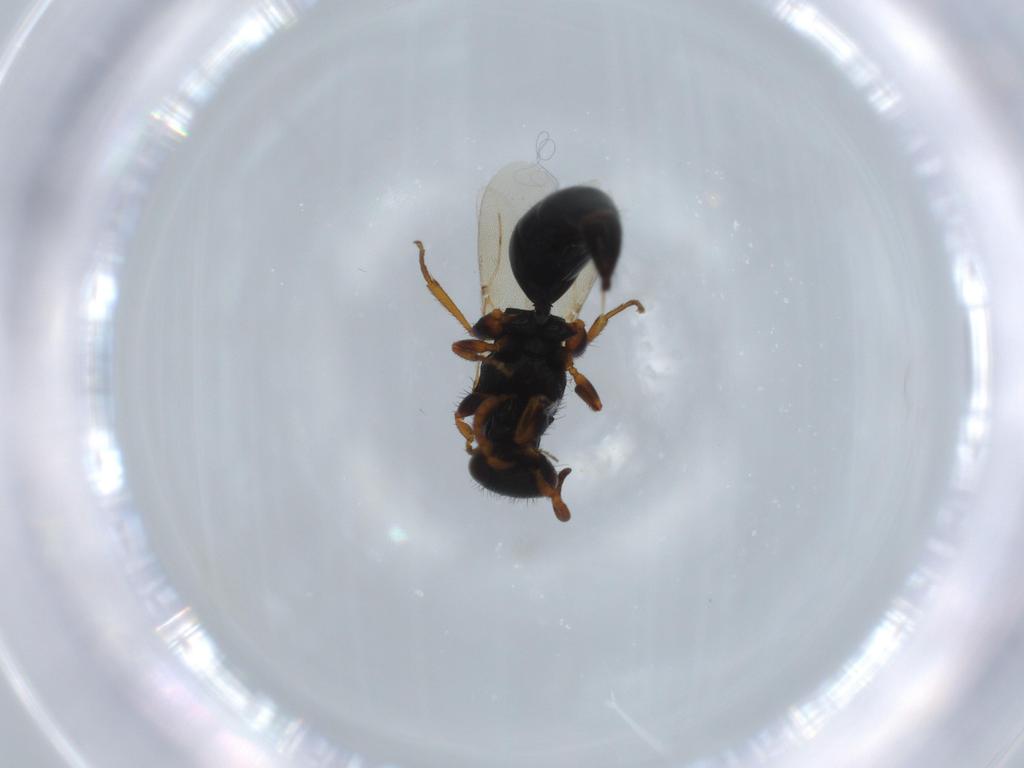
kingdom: Animalia
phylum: Arthropoda
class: Insecta
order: Hymenoptera
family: Bethylidae
